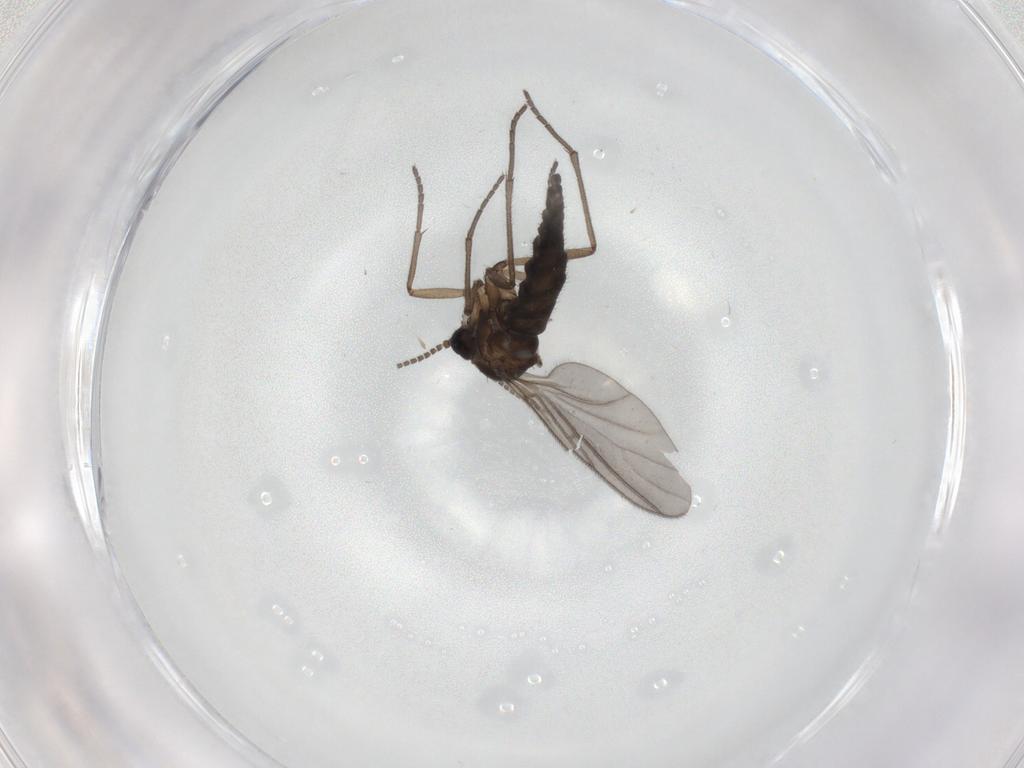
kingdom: Animalia
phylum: Arthropoda
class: Insecta
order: Diptera
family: Sciaridae
